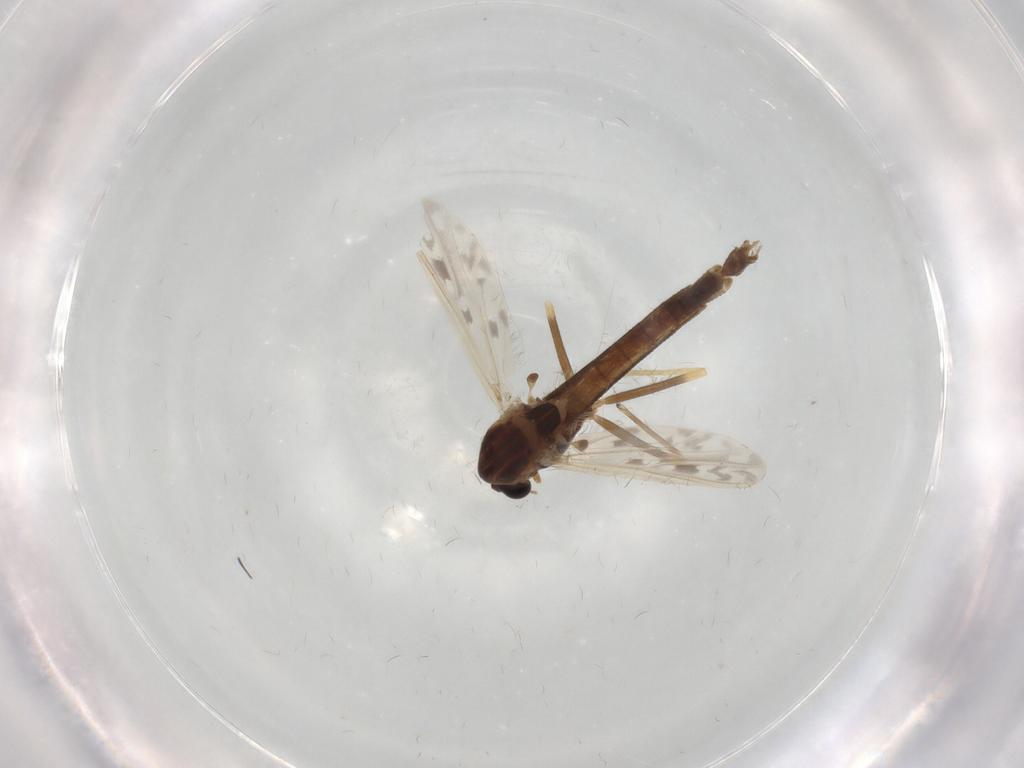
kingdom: Animalia
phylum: Arthropoda
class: Insecta
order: Diptera
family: Chironomidae
